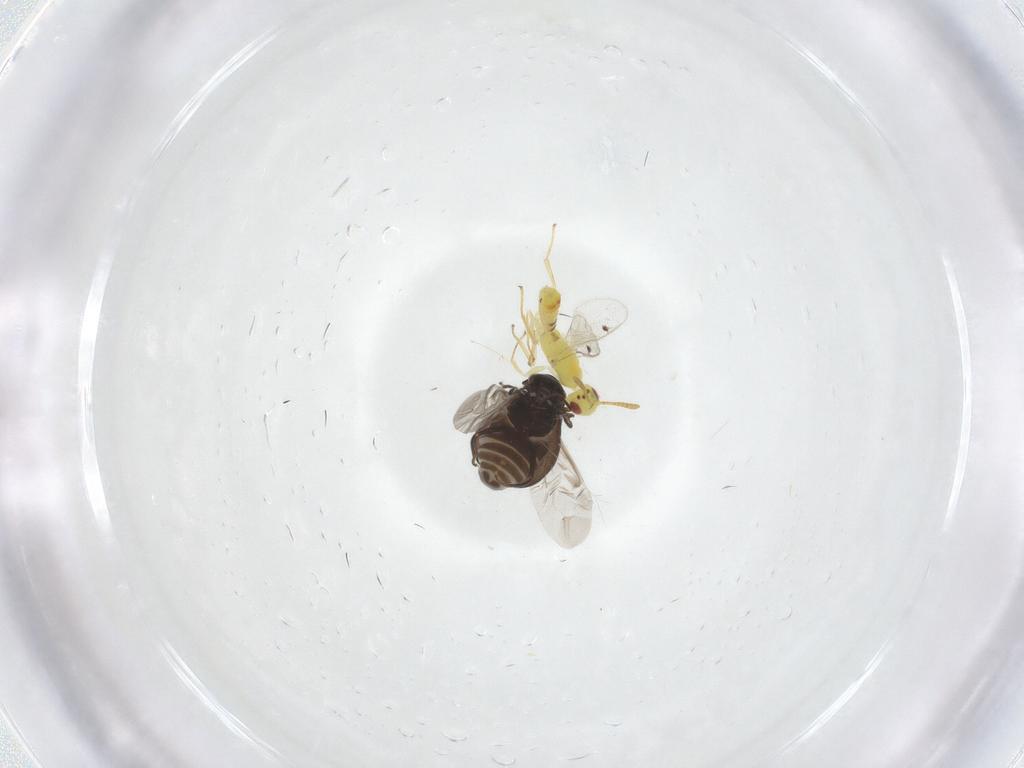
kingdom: Animalia
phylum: Arthropoda
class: Insecta
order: Coleoptera
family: Melyridae
